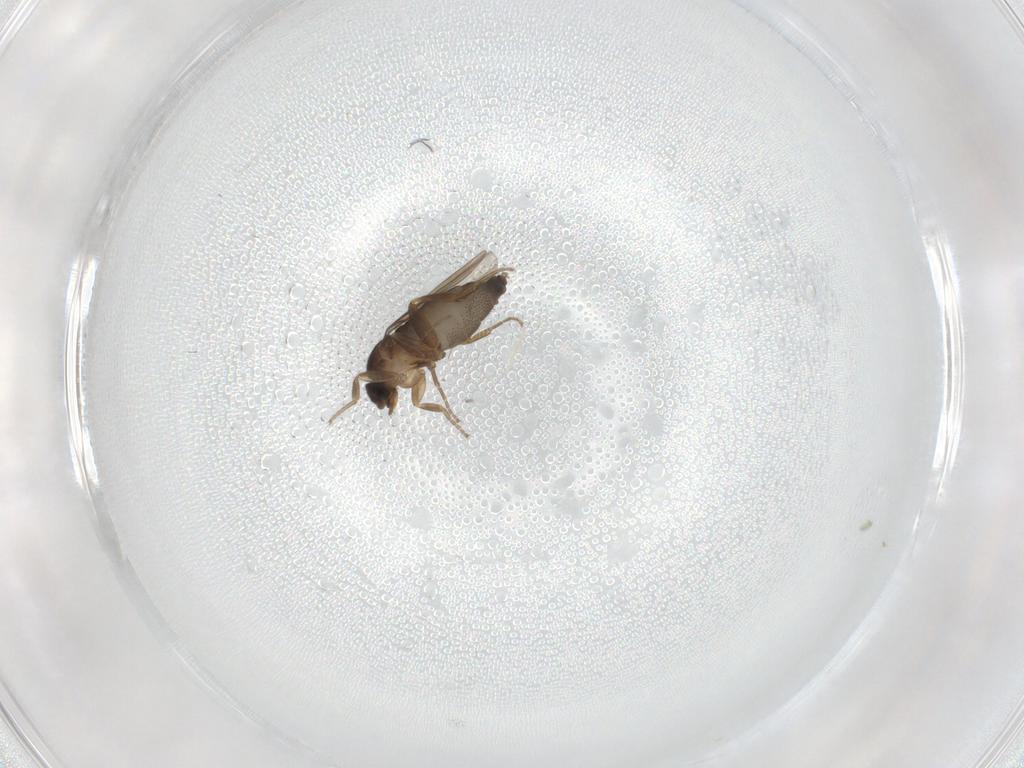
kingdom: Animalia
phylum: Arthropoda
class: Insecta
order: Diptera
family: Phoridae
